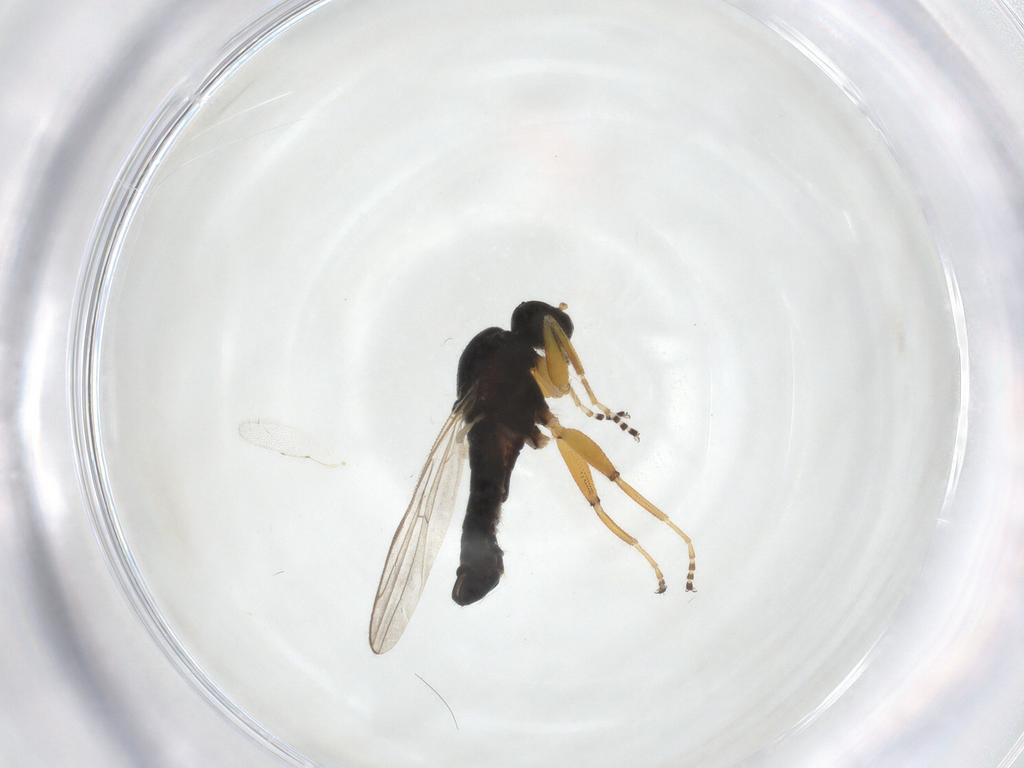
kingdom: Animalia
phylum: Arthropoda
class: Insecta
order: Diptera
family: Hybotidae
